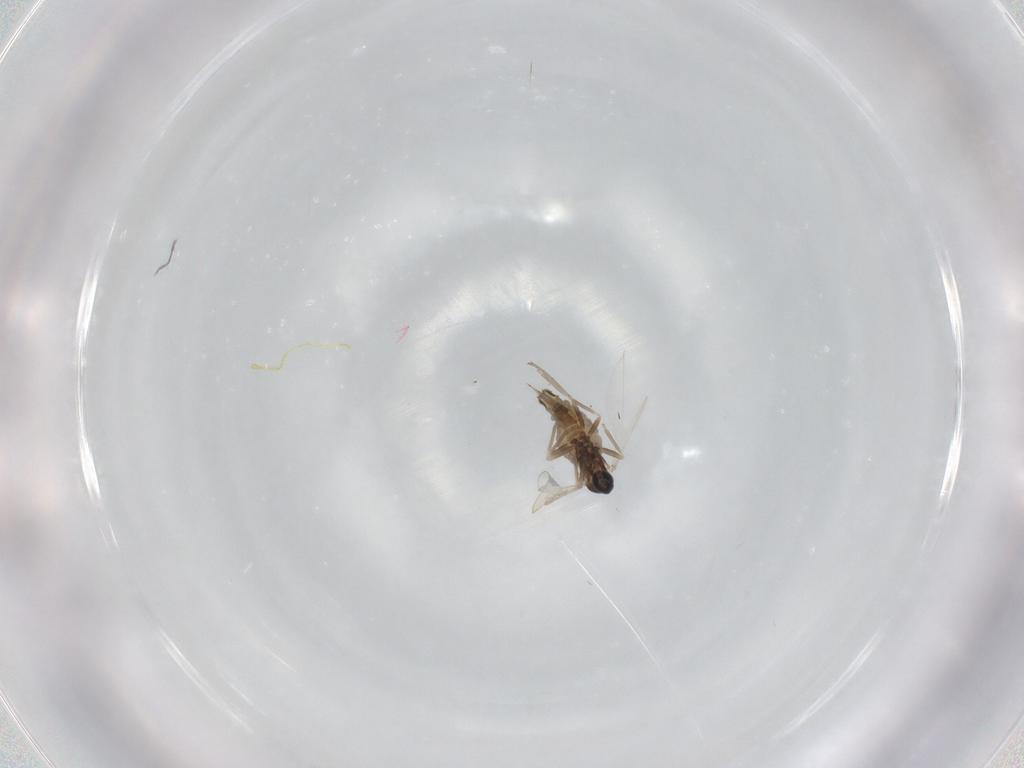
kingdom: Animalia
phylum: Arthropoda
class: Insecta
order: Diptera
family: Cecidomyiidae
